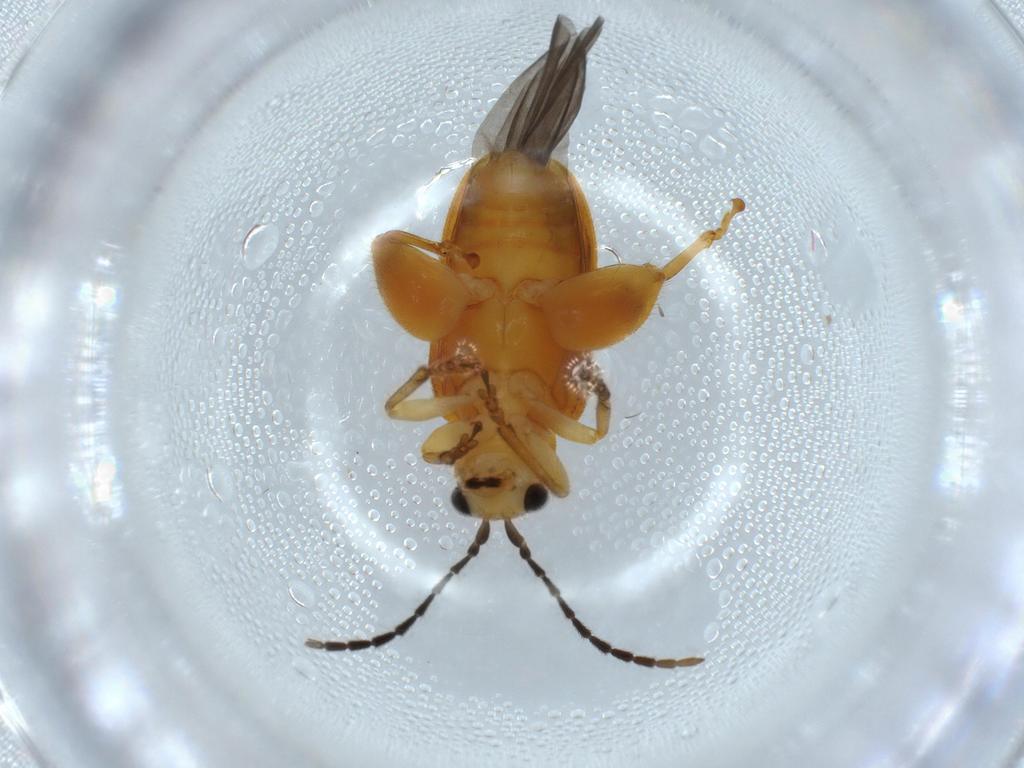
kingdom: Animalia
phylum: Arthropoda
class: Insecta
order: Coleoptera
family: Chrysomelidae
